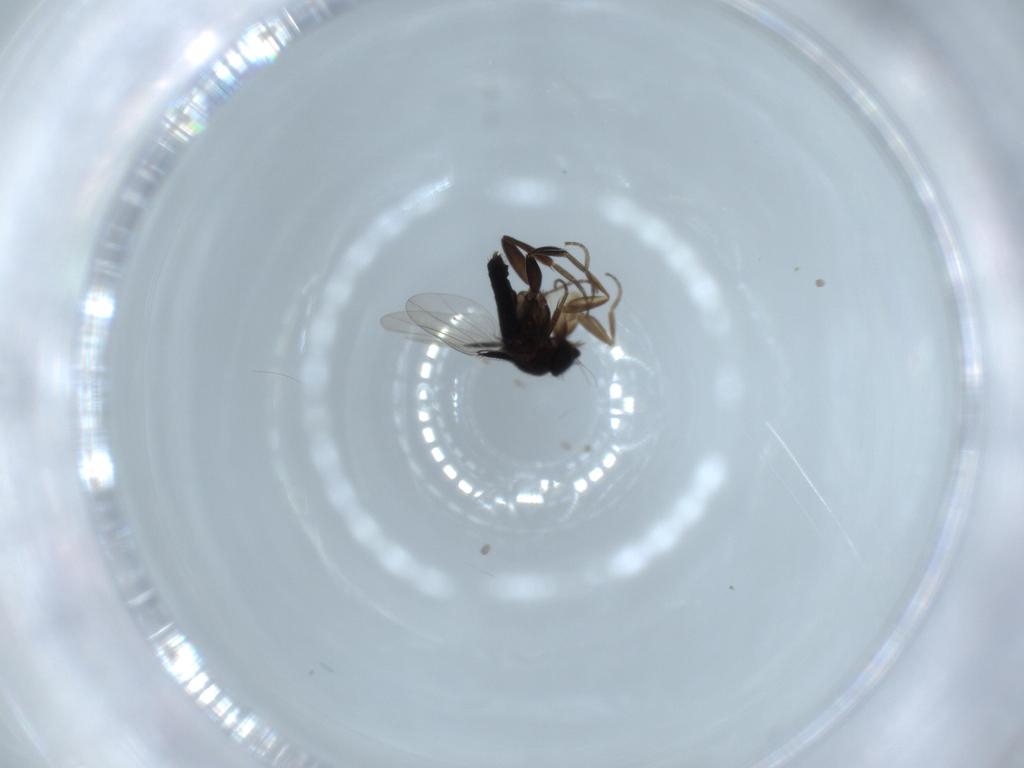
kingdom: Animalia
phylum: Arthropoda
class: Insecta
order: Diptera
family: Phoridae
